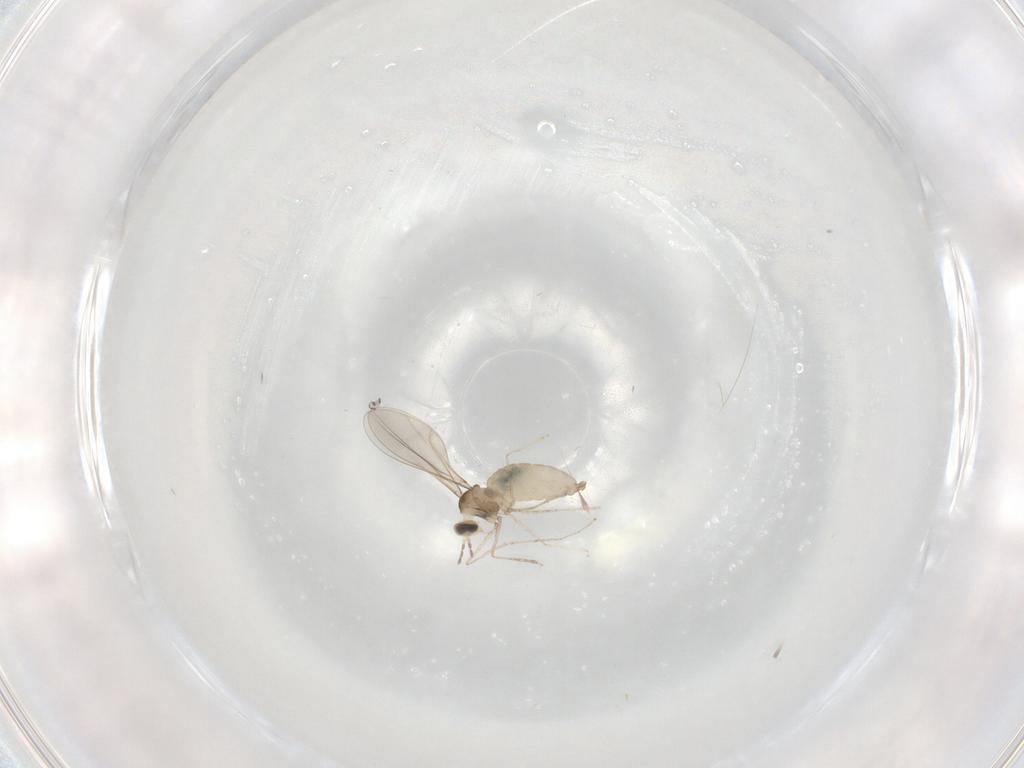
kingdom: Animalia
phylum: Arthropoda
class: Insecta
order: Diptera
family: Cecidomyiidae
